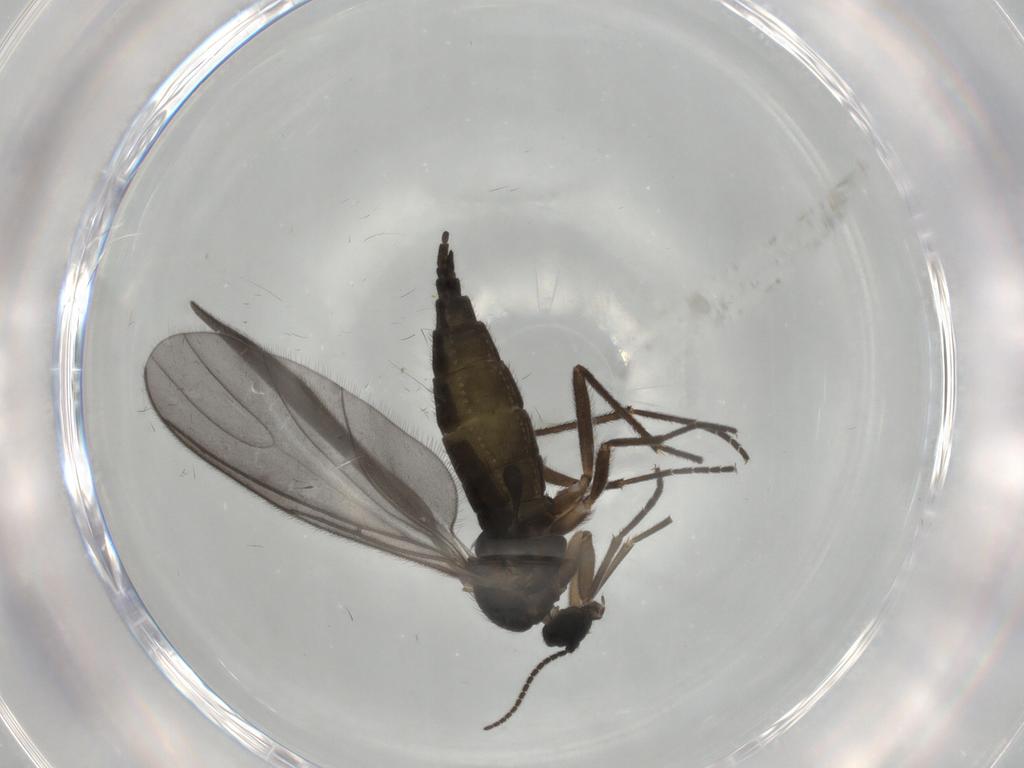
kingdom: Animalia
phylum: Arthropoda
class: Insecta
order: Diptera
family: Sciaridae
